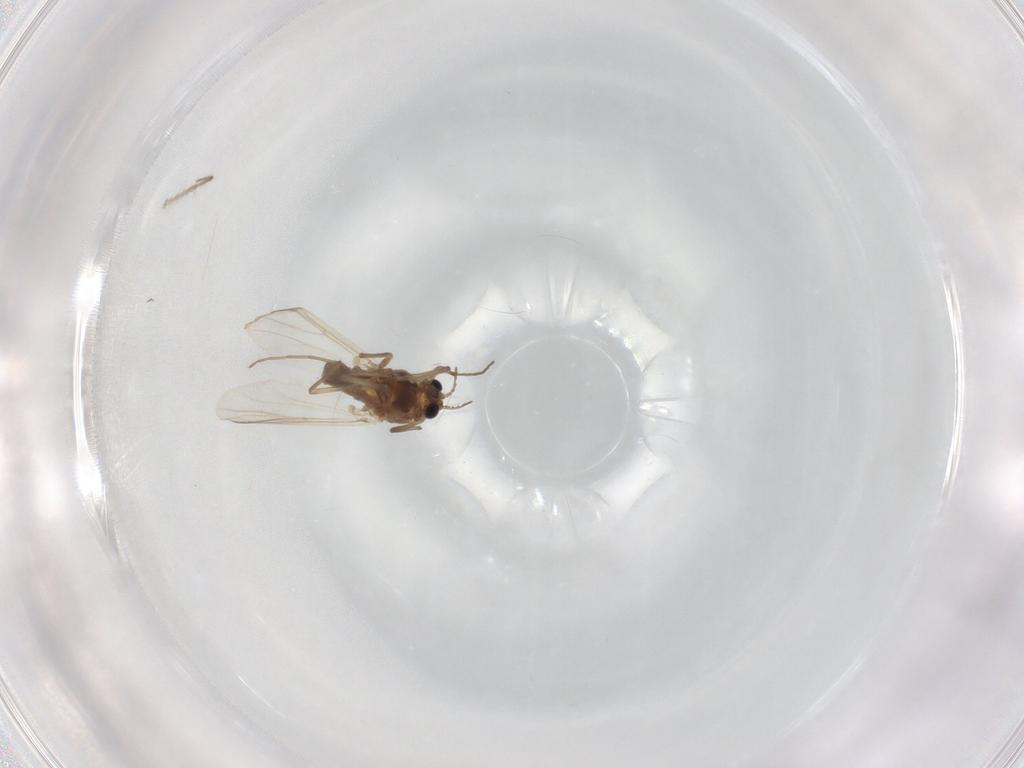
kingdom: Animalia
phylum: Arthropoda
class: Insecta
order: Diptera
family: Chironomidae
